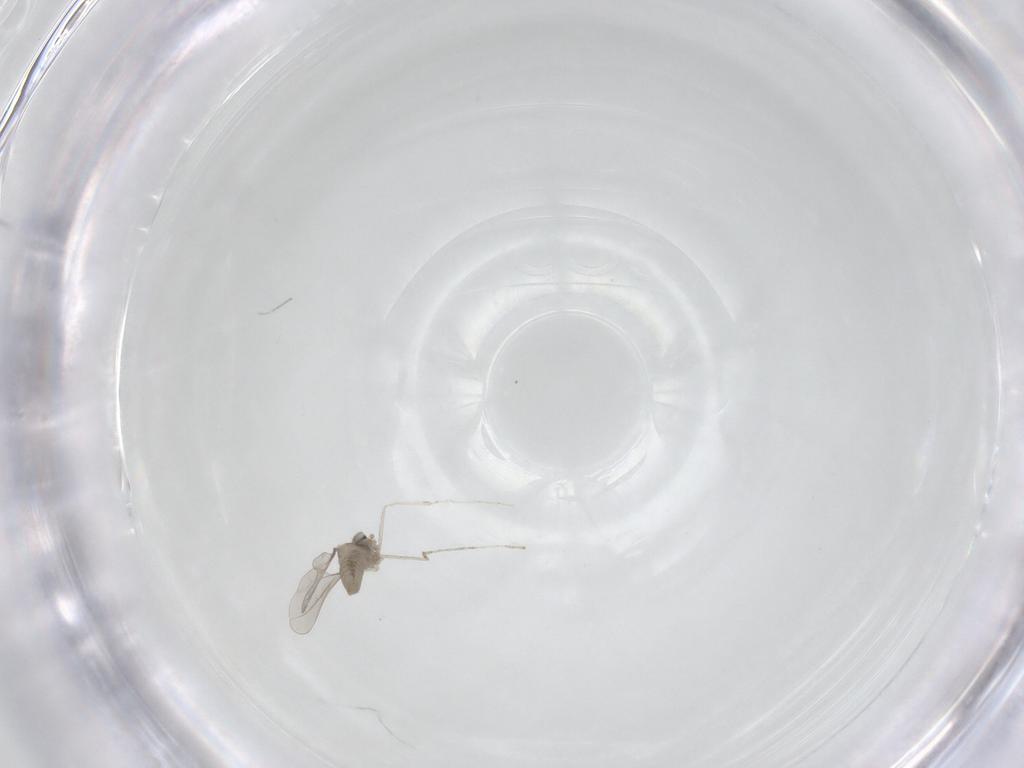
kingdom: Animalia
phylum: Arthropoda
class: Insecta
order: Diptera
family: Cecidomyiidae
